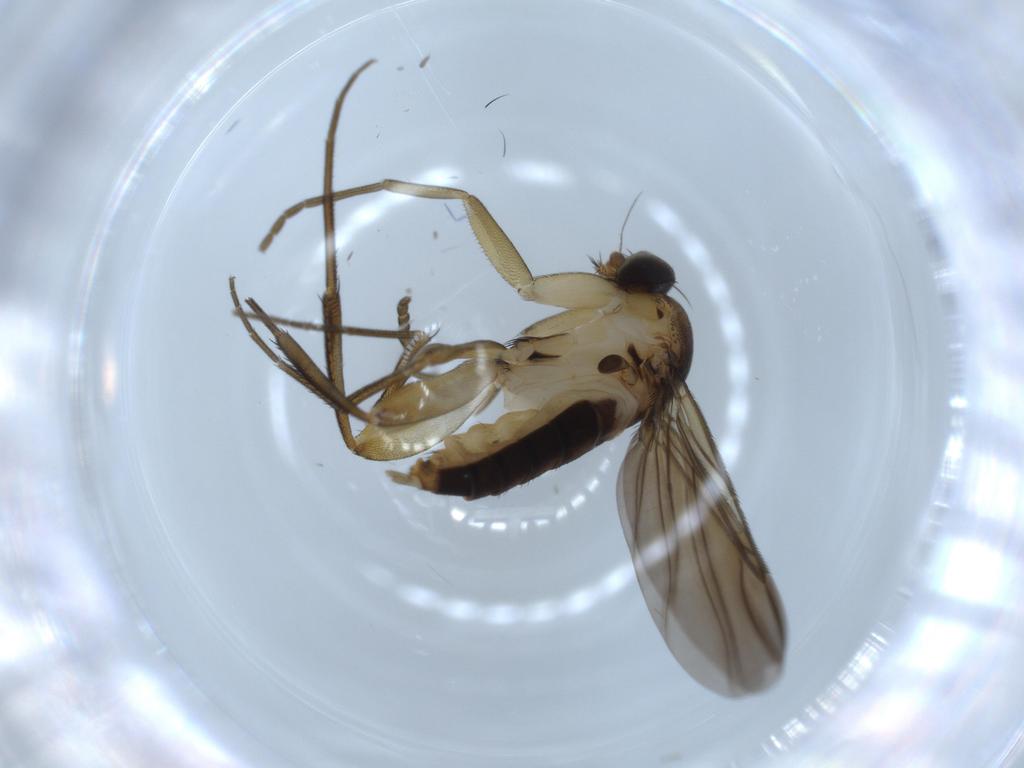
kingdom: Animalia
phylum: Arthropoda
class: Insecta
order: Diptera
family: Phoridae
